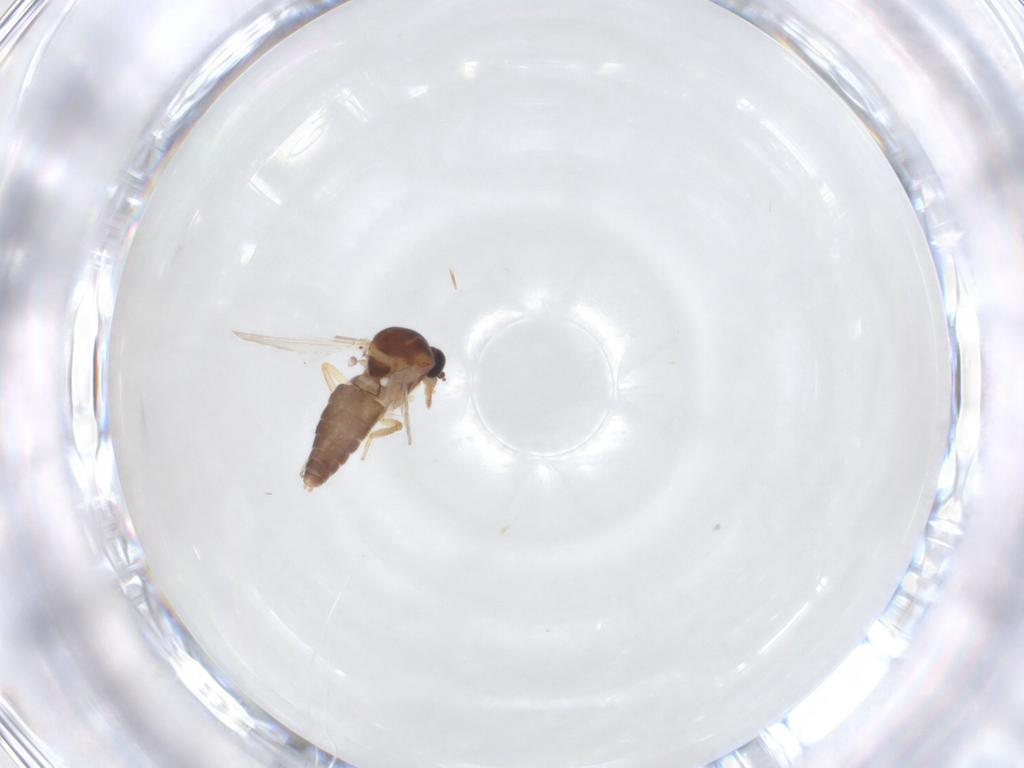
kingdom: Animalia
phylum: Arthropoda
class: Insecta
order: Diptera
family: Ceratopogonidae
